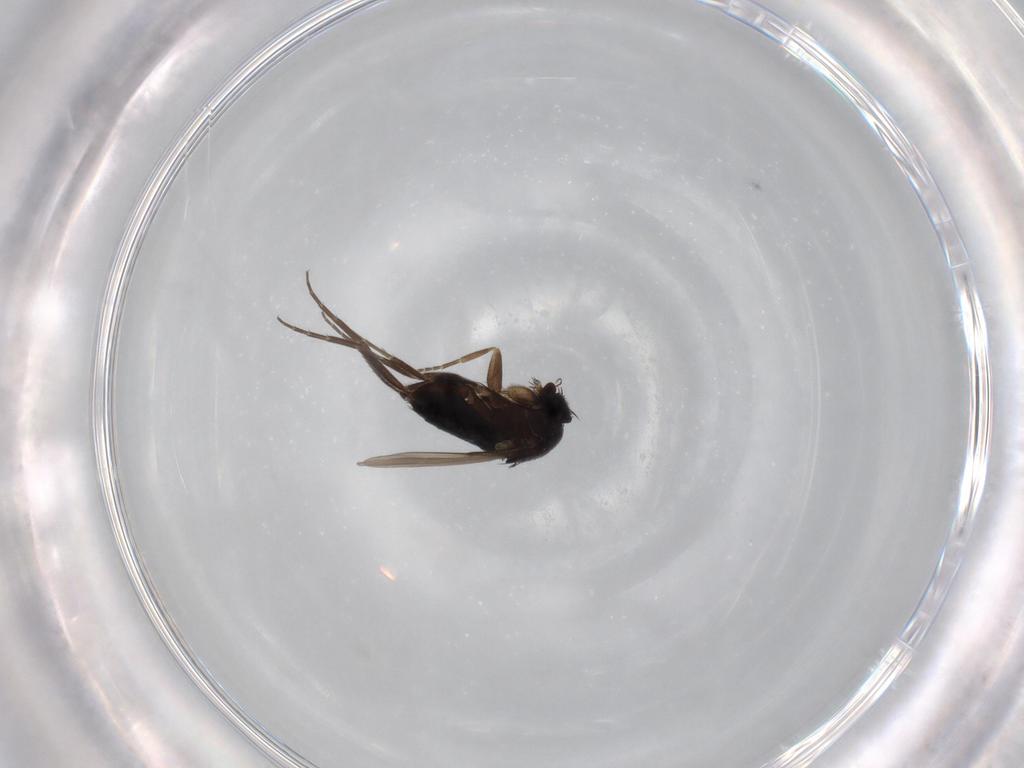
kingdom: Animalia
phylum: Arthropoda
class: Insecta
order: Diptera
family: Phoridae
